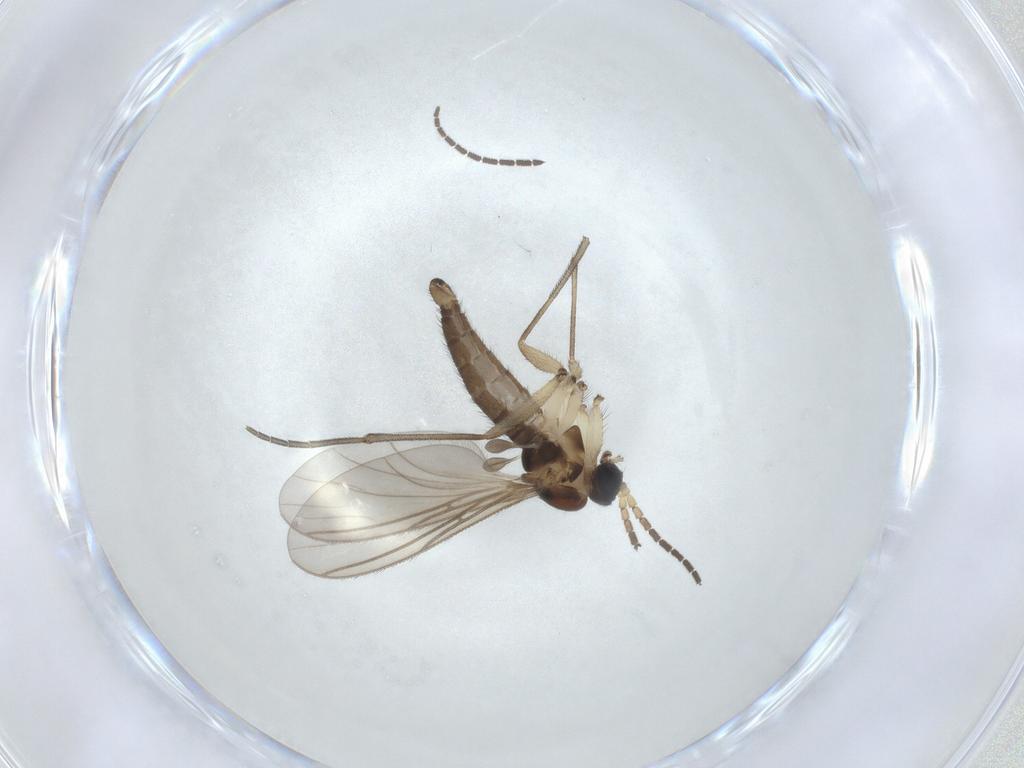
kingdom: Animalia
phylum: Arthropoda
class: Insecta
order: Diptera
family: Sciaridae
